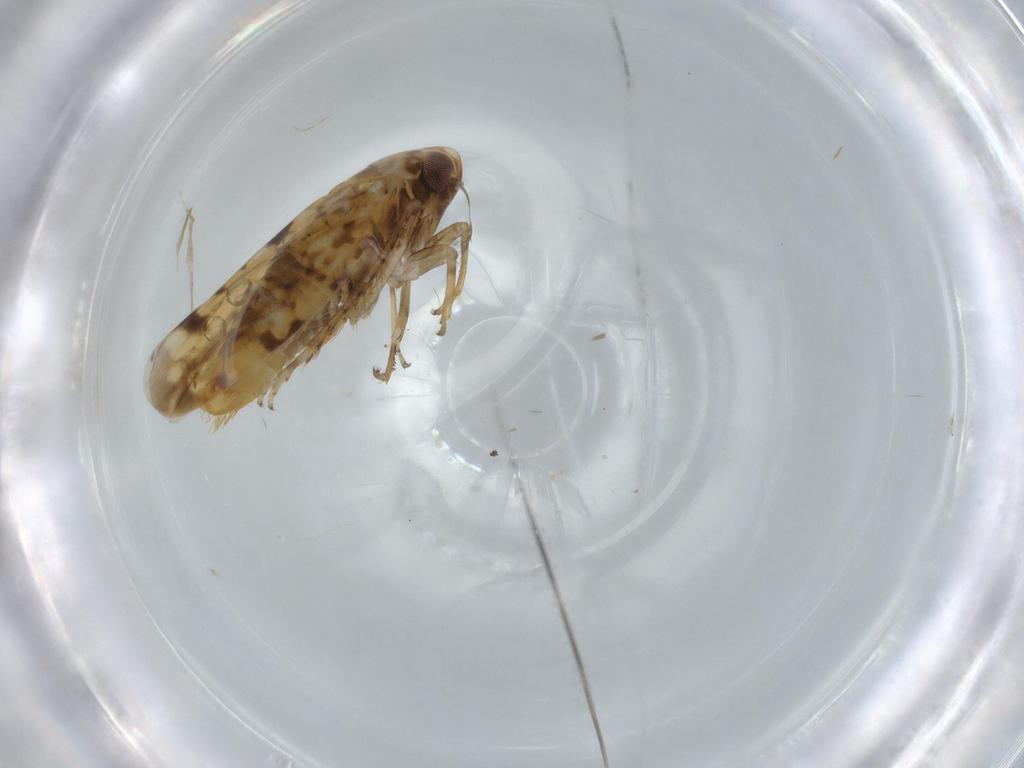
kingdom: Animalia
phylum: Arthropoda
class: Insecta
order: Hemiptera
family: Cicadellidae
